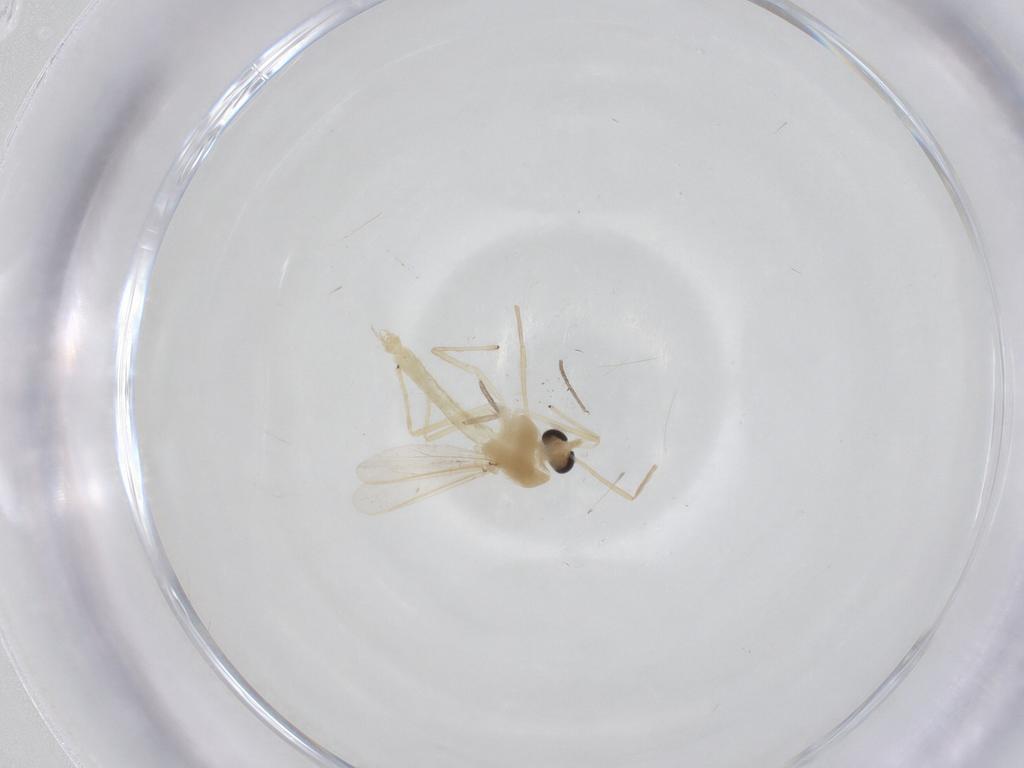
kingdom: Animalia
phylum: Arthropoda
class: Insecta
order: Diptera
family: Chironomidae
